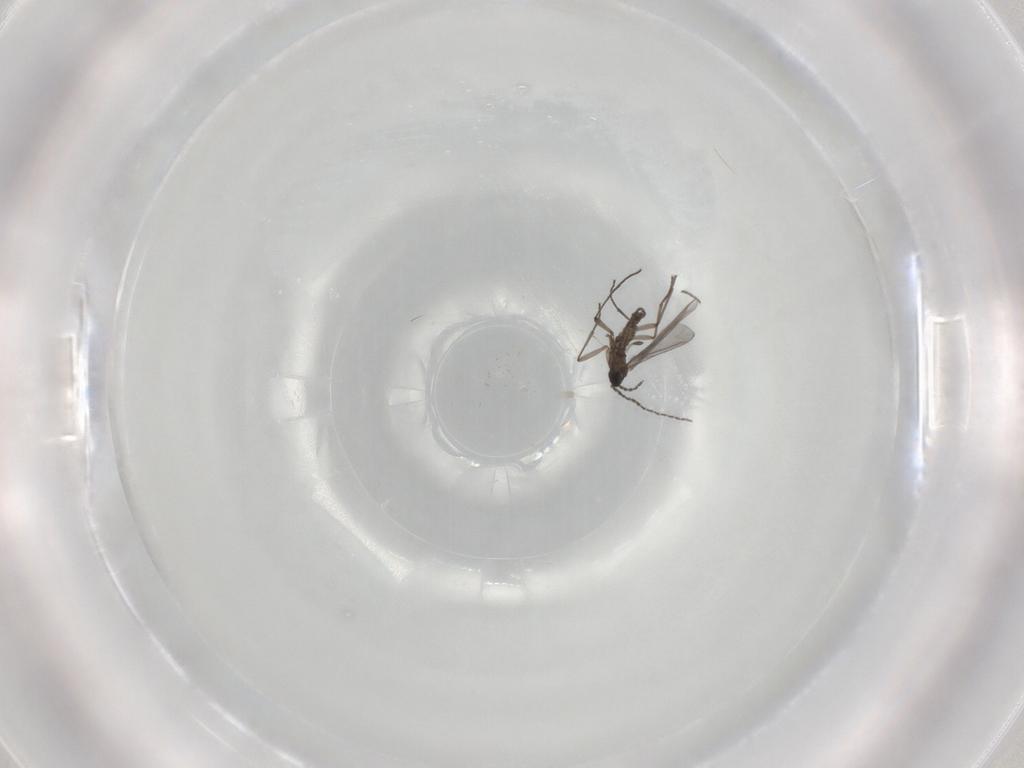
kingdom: Animalia
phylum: Arthropoda
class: Insecta
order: Diptera
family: Sciaridae
